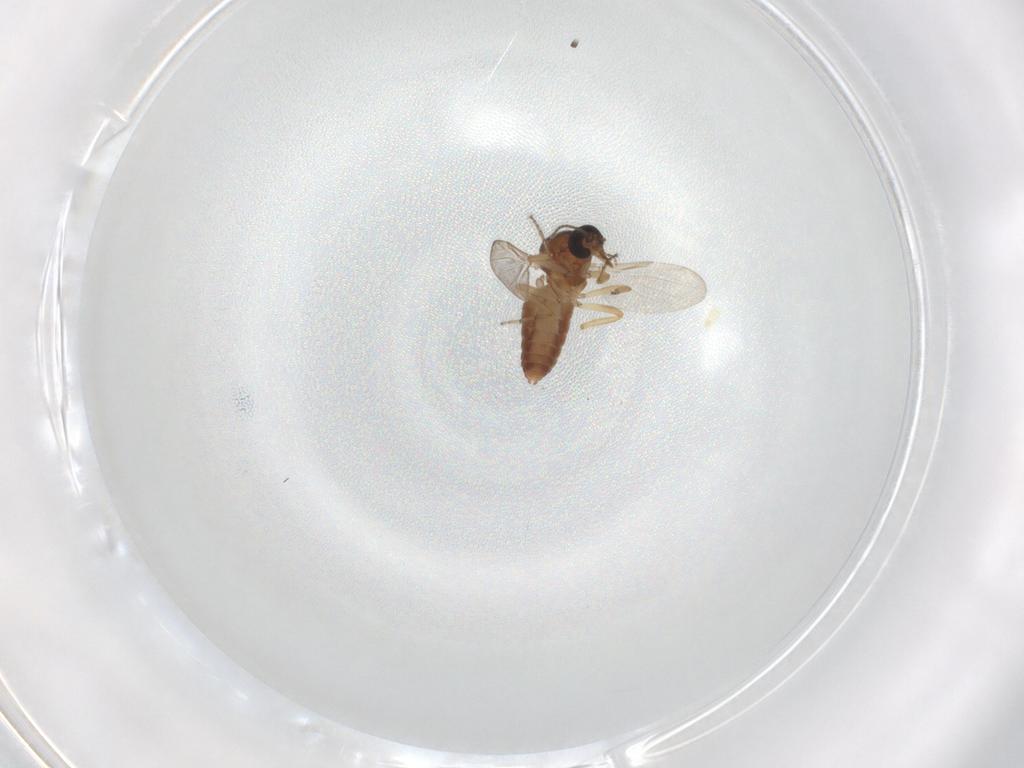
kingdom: Animalia
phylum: Arthropoda
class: Insecta
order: Diptera
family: Ceratopogonidae
